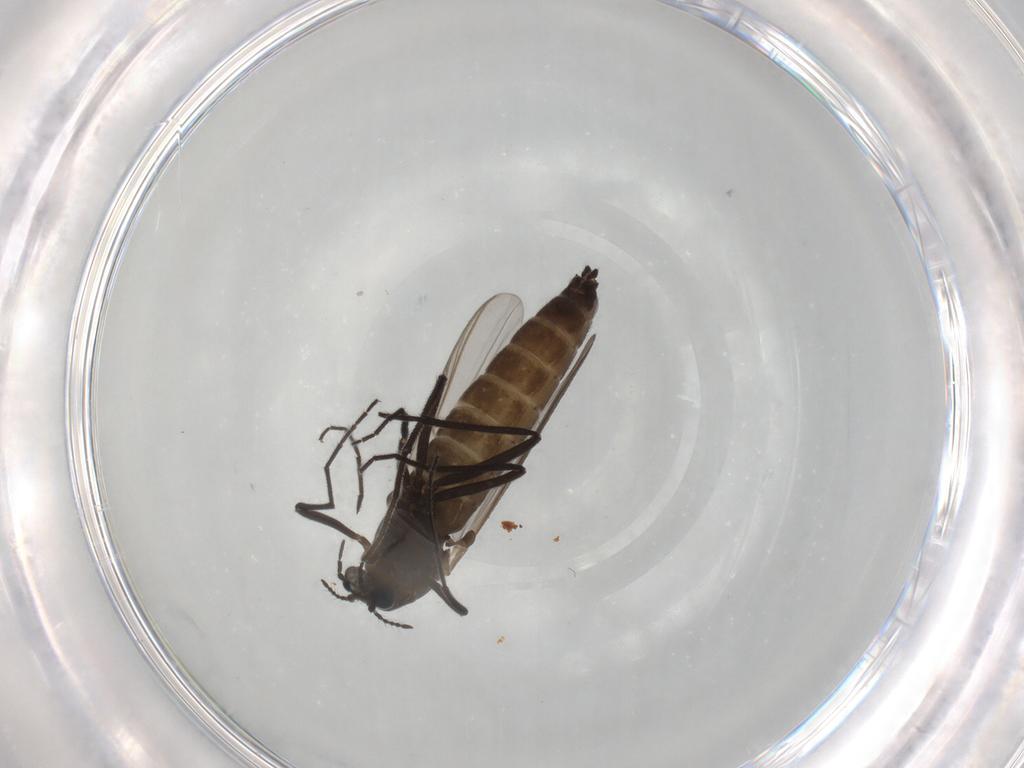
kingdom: Animalia
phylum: Arthropoda
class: Insecta
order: Diptera
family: Chironomidae
